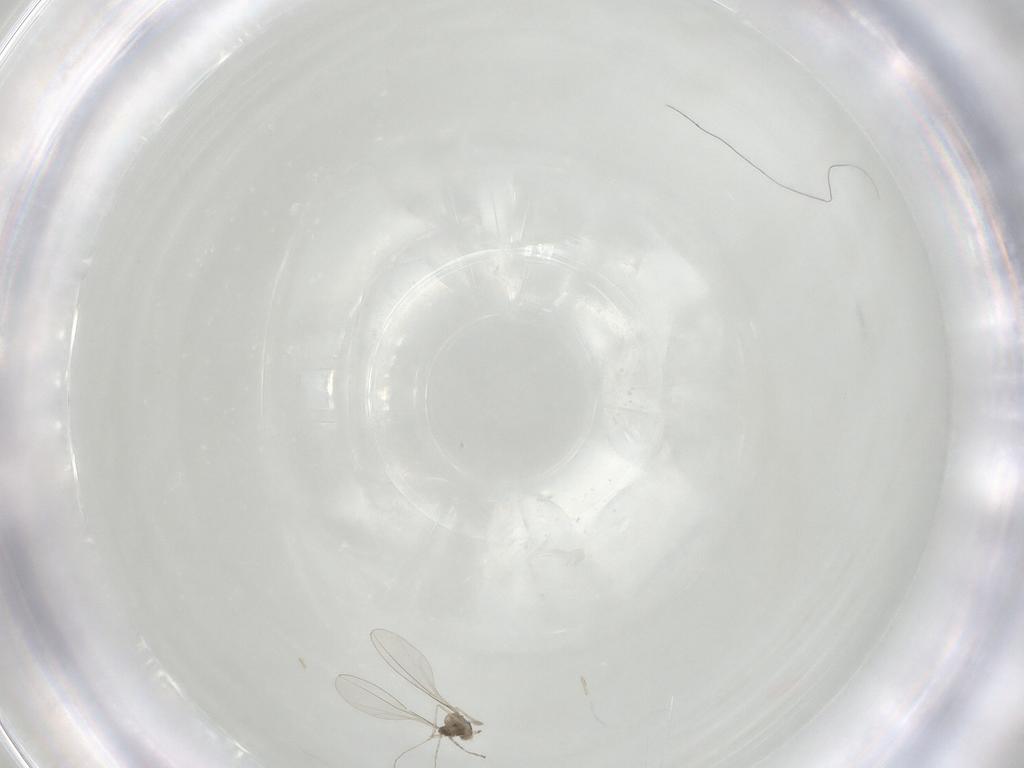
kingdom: Animalia
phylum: Arthropoda
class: Insecta
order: Diptera
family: Cecidomyiidae
